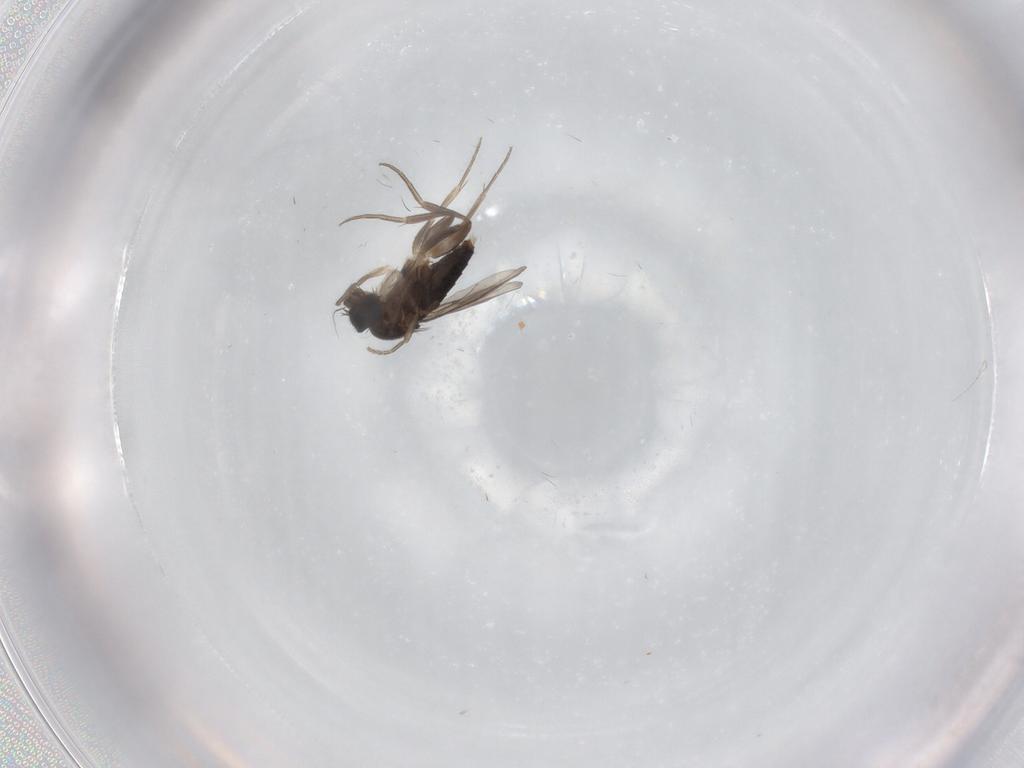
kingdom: Animalia
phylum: Arthropoda
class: Insecta
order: Diptera
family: Phoridae
